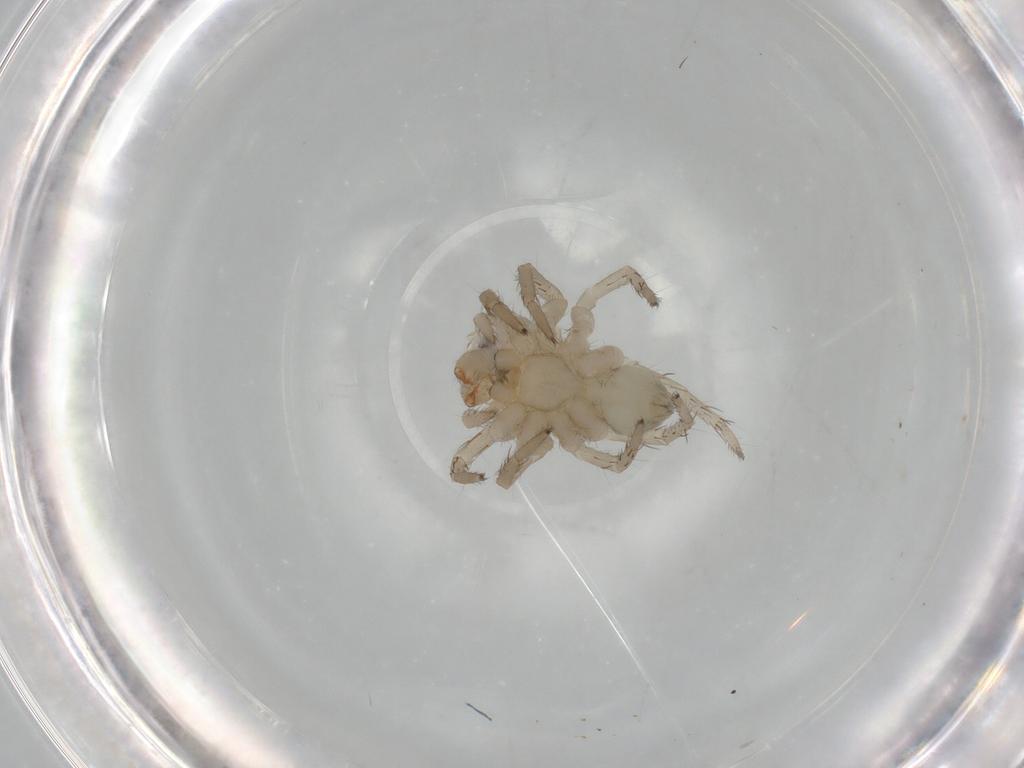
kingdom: Animalia
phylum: Arthropoda
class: Arachnida
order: Araneae
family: Lycosidae
